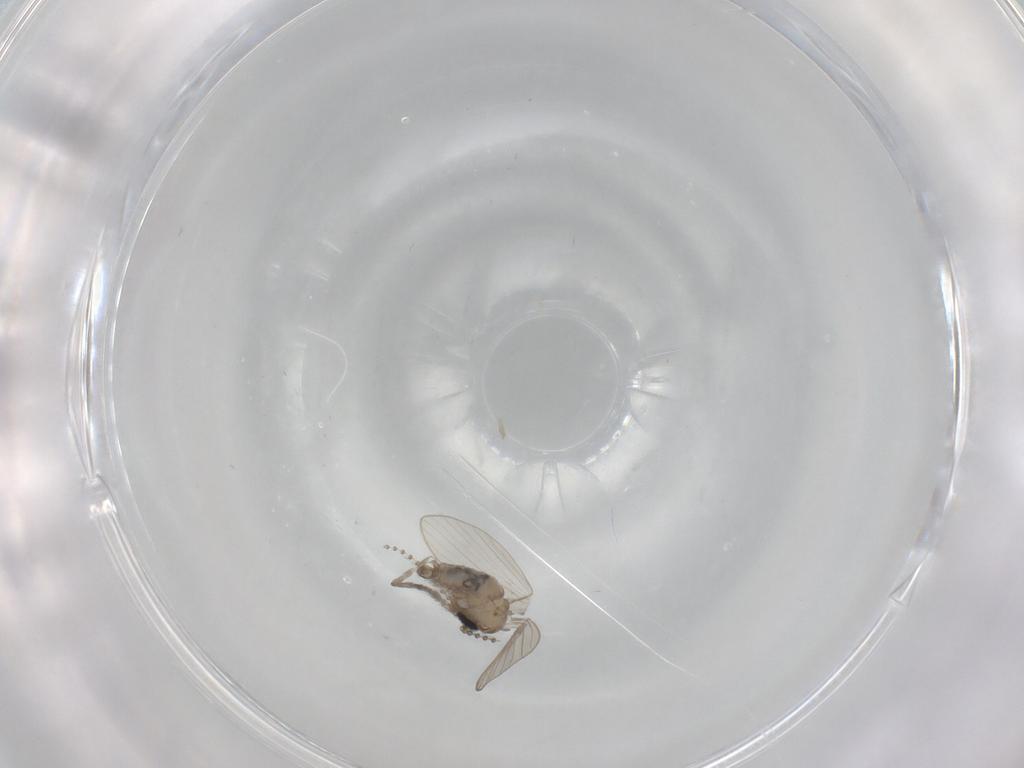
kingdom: Animalia
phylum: Arthropoda
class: Insecta
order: Diptera
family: Psychodidae
